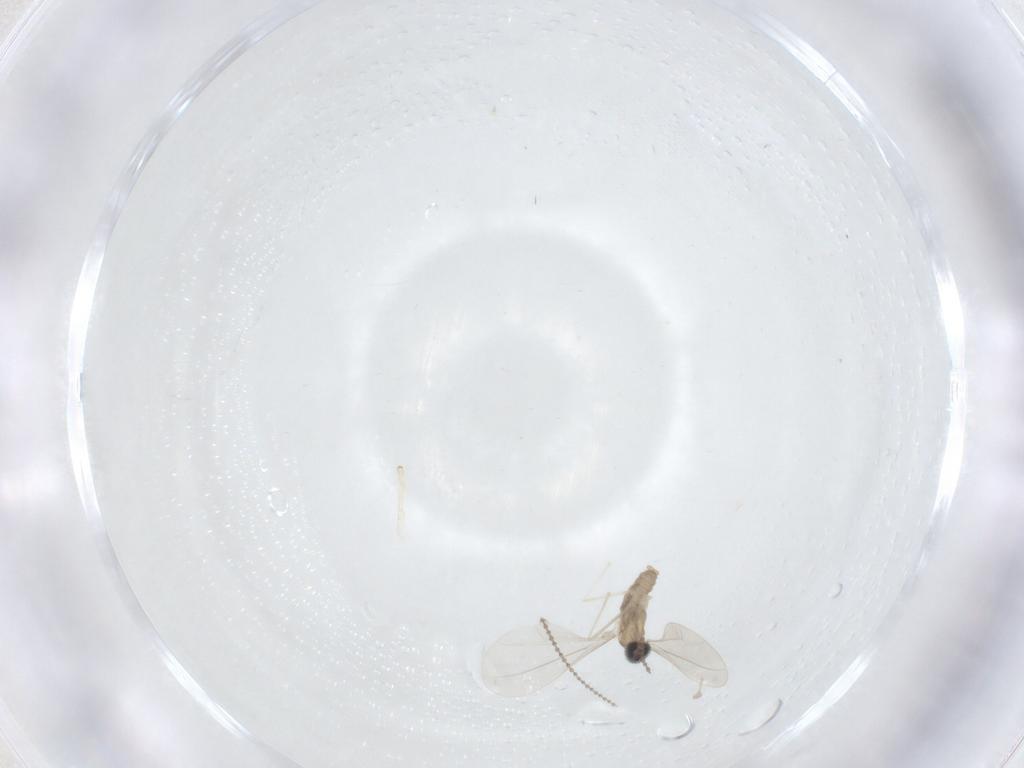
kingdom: Animalia
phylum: Arthropoda
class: Insecta
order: Diptera
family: Cecidomyiidae
